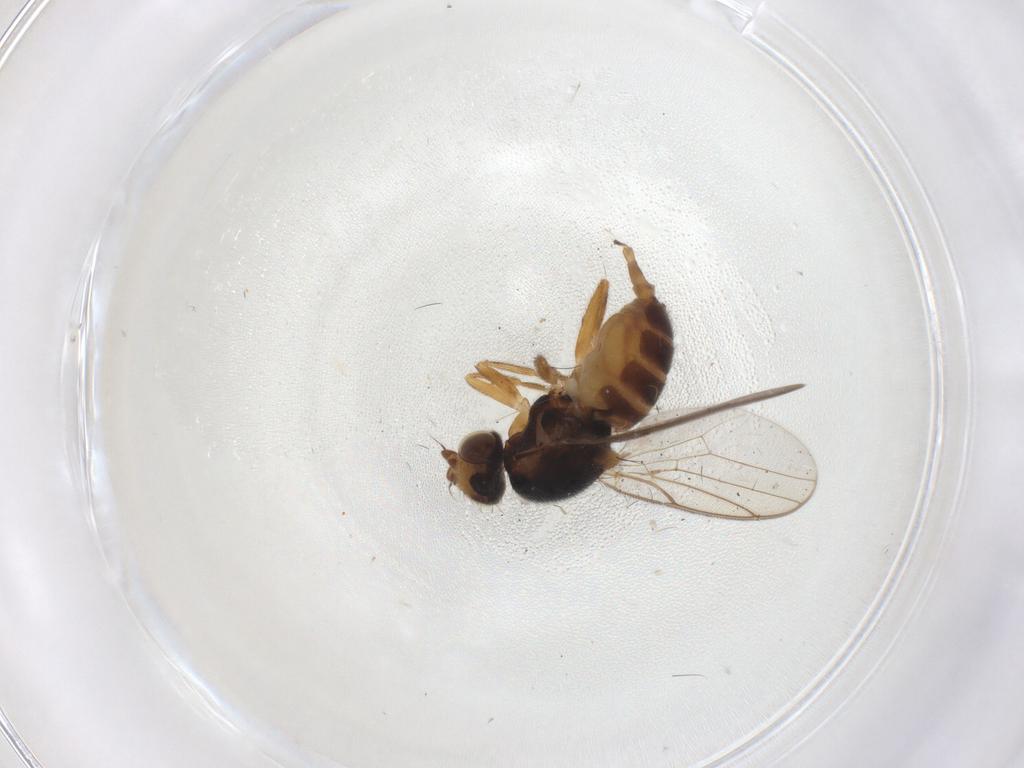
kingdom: Animalia
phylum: Arthropoda
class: Insecta
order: Diptera
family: Chloropidae
